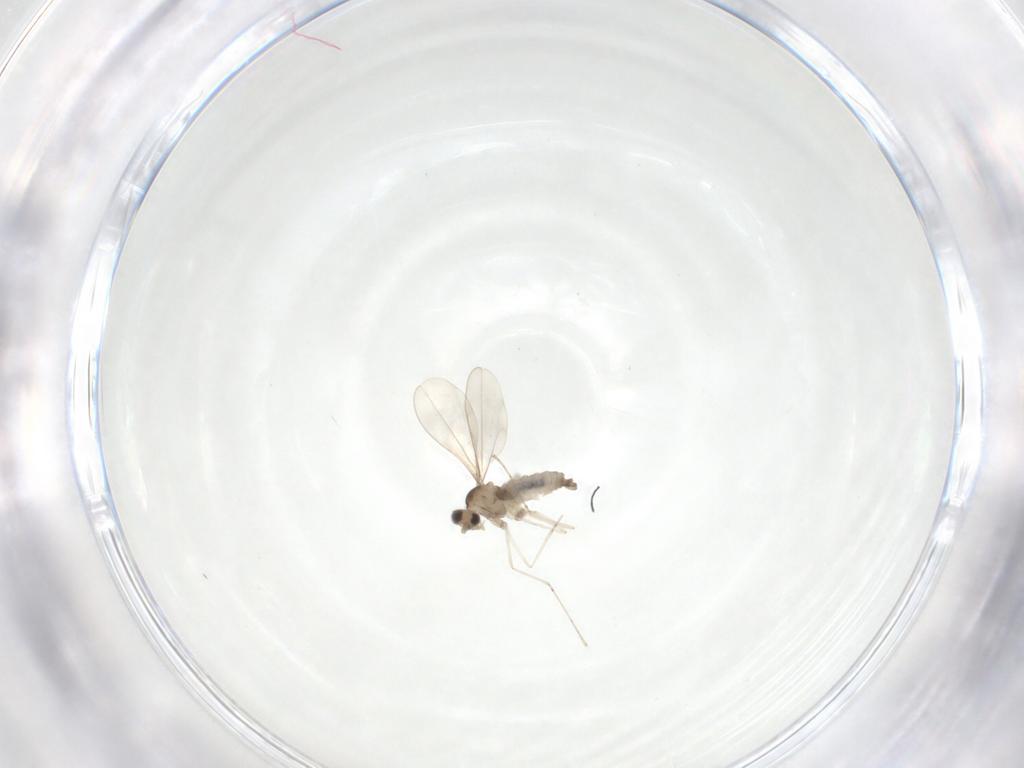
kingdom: Animalia
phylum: Arthropoda
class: Insecta
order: Diptera
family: Cecidomyiidae
